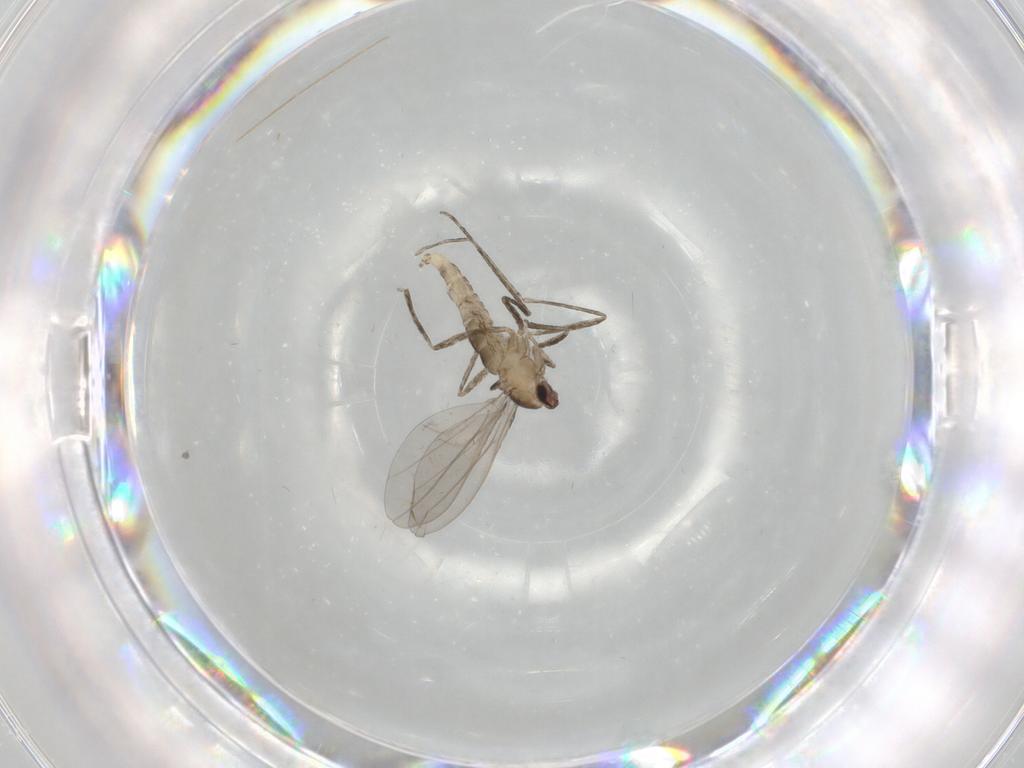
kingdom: Animalia
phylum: Arthropoda
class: Insecta
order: Diptera
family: Cecidomyiidae
